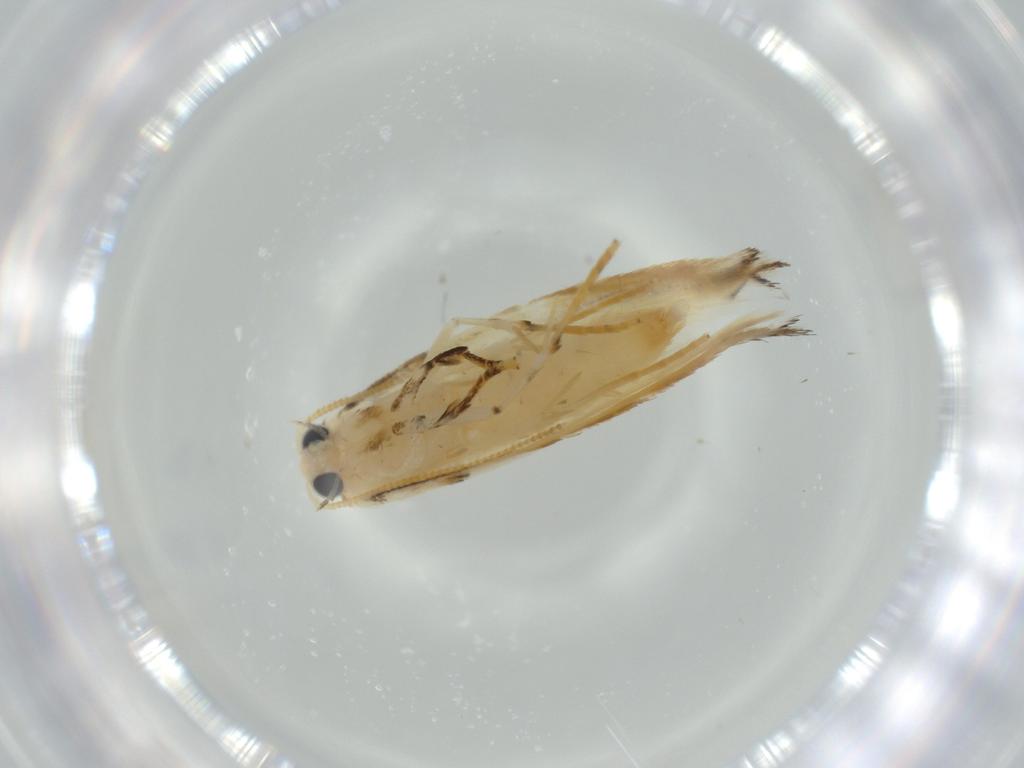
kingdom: Animalia
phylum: Arthropoda
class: Insecta
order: Lepidoptera
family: Tineidae
